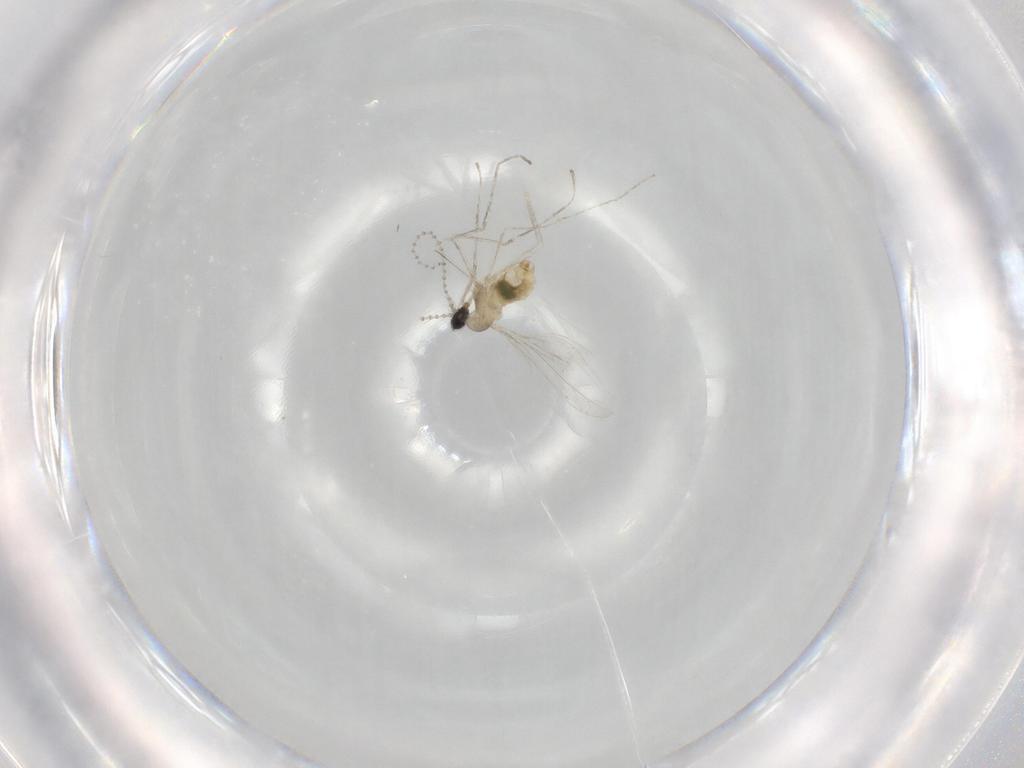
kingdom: Animalia
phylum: Arthropoda
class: Insecta
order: Diptera
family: Cecidomyiidae
